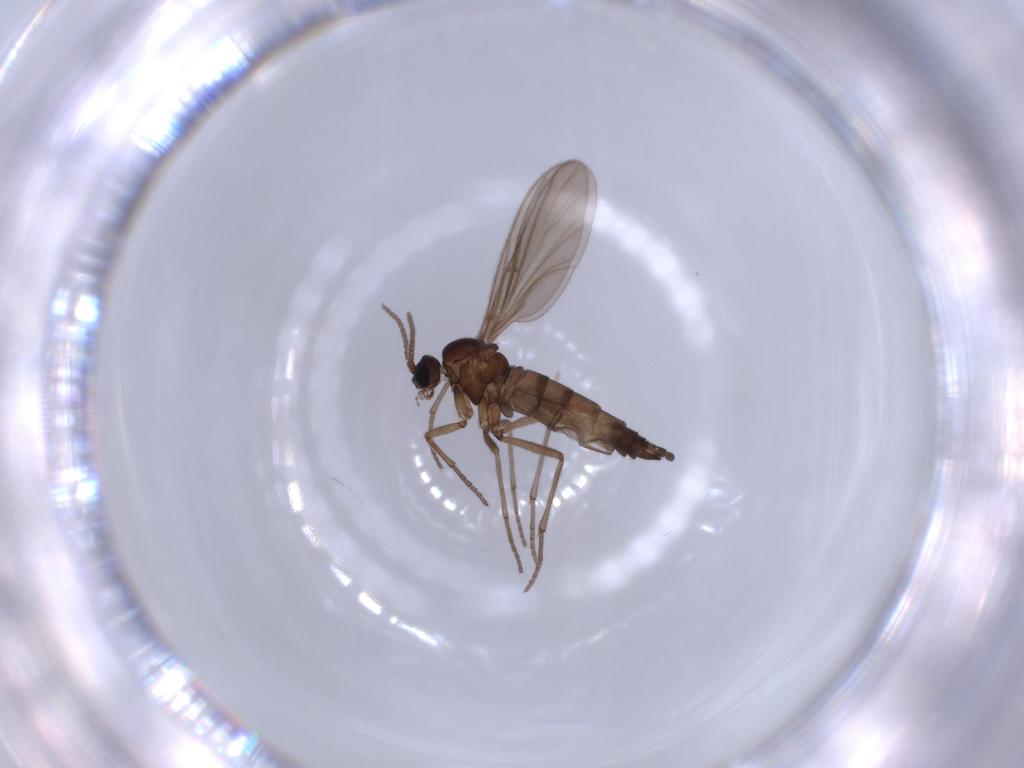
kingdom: Animalia
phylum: Arthropoda
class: Insecta
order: Diptera
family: Sciaridae
